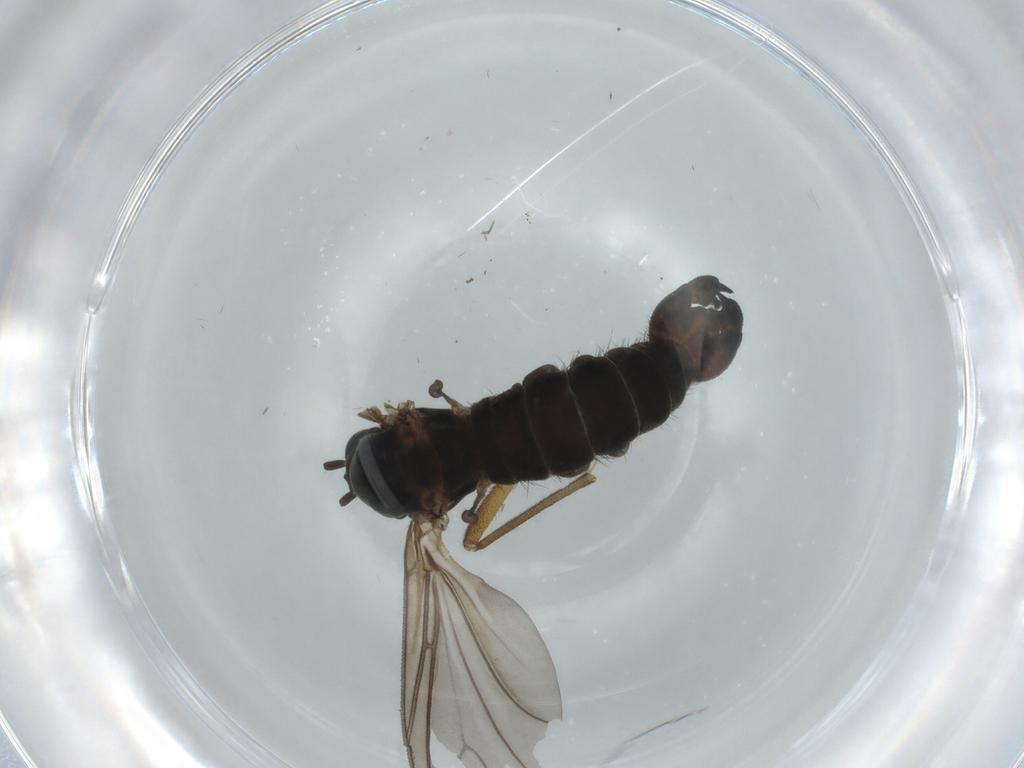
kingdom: Animalia
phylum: Arthropoda
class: Insecta
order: Diptera
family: Sciaridae
